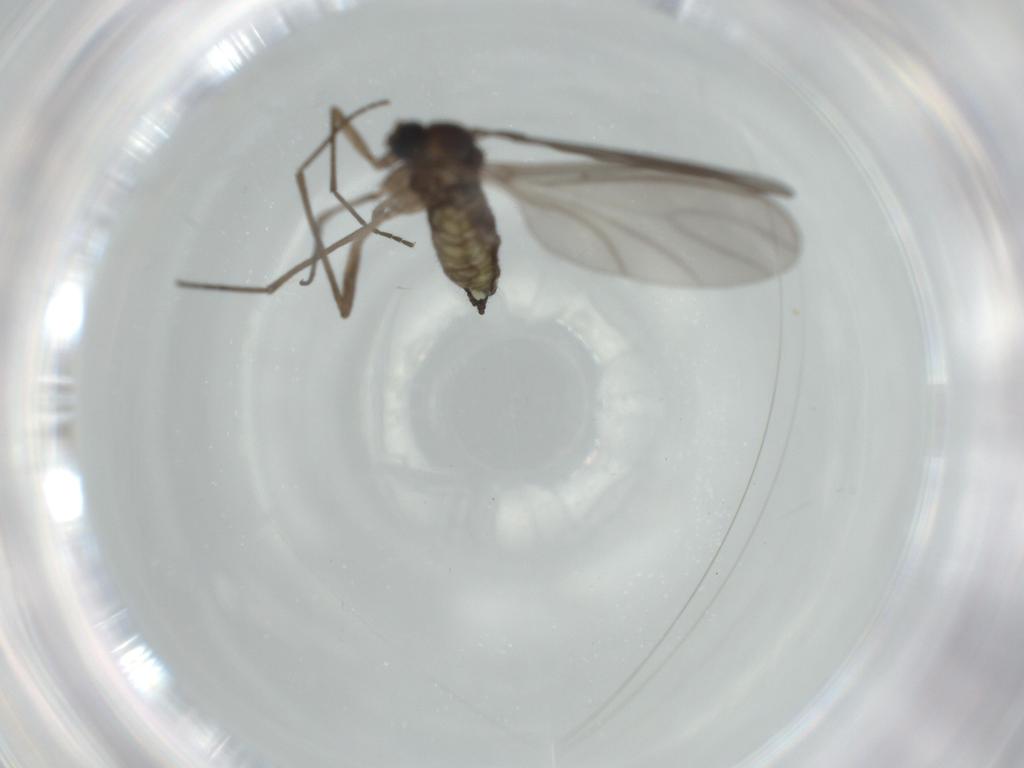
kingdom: Animalia
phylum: Arthropoda
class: Insecta
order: Diptera
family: Sciaridae
